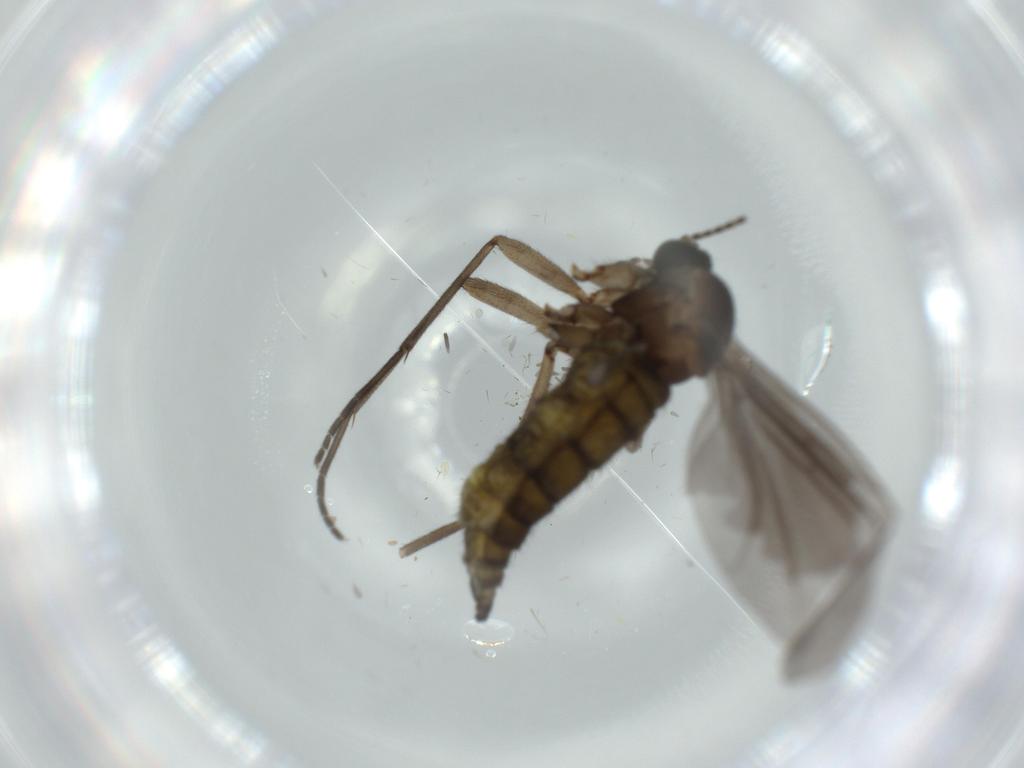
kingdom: Animalia
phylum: Arthropoda
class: Insecta
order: Diptera
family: Sciaridae
